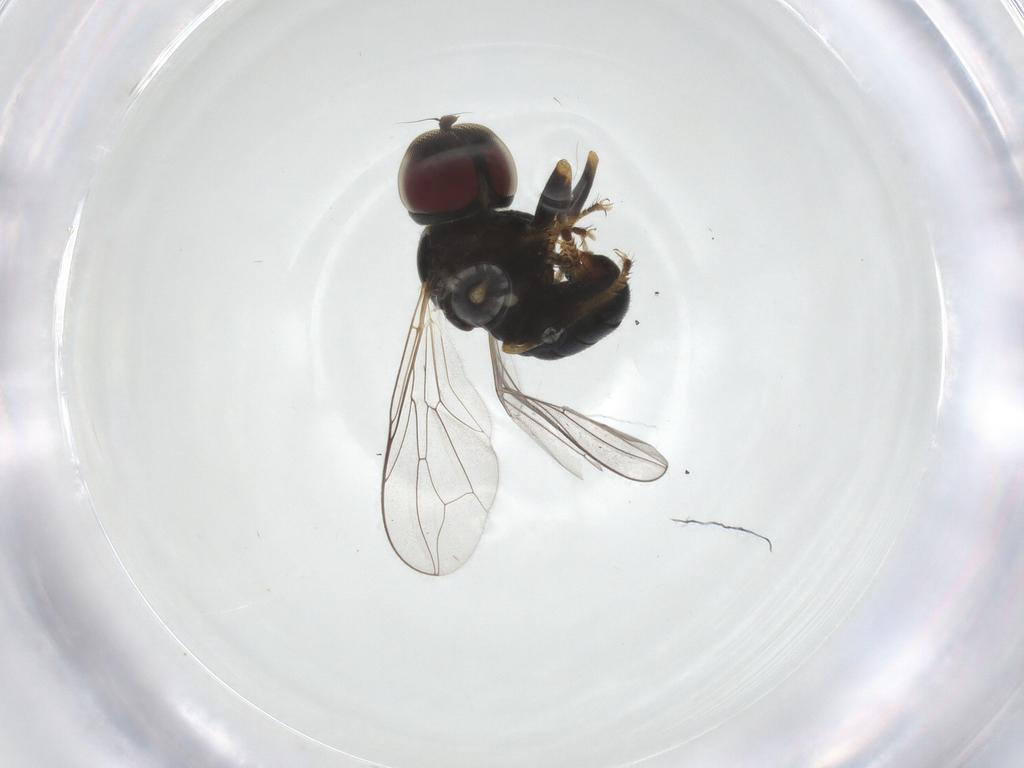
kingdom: Animalia
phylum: Arthropoda
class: Insecta
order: Diptera
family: Pipunculidae
